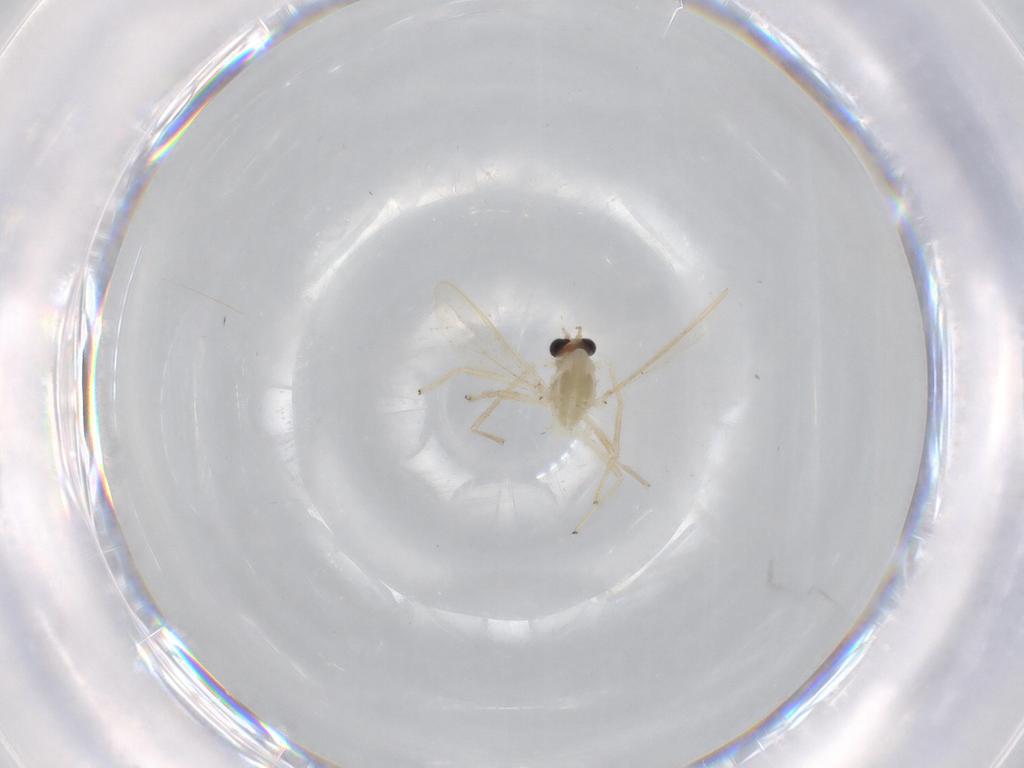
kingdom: Animalia
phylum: Arthropoda
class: Insecta
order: Diptera
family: Chironomidae
